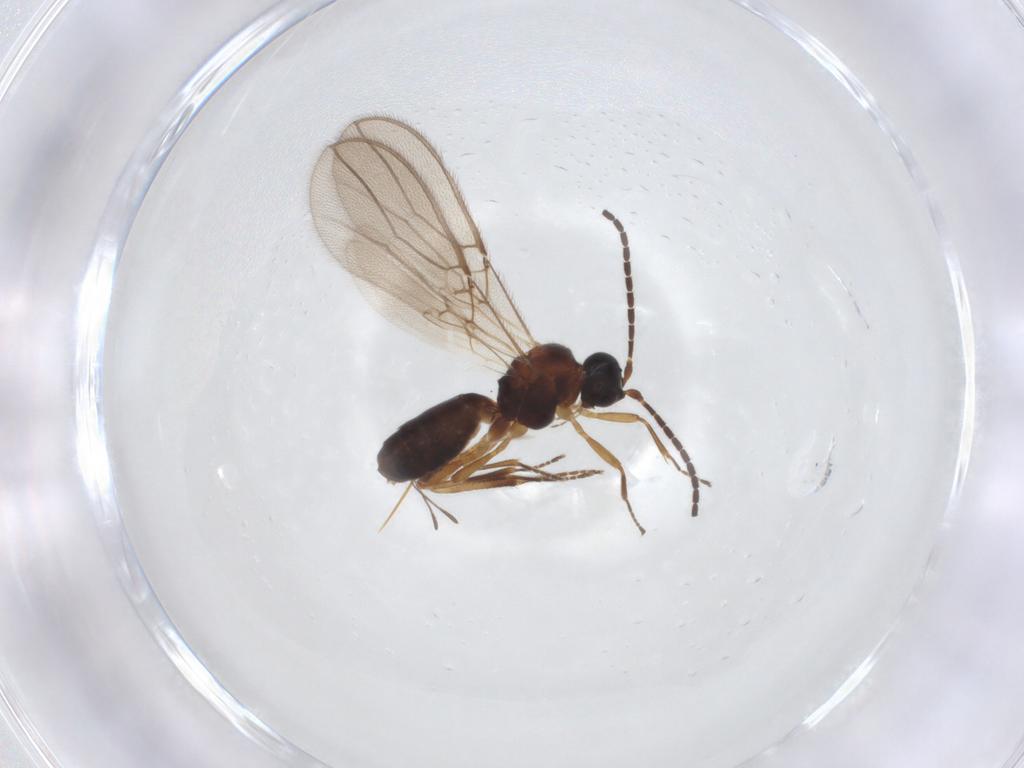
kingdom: Animalia
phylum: Arthropoda
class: Insecta
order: Hymenoptera
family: Braconidae
